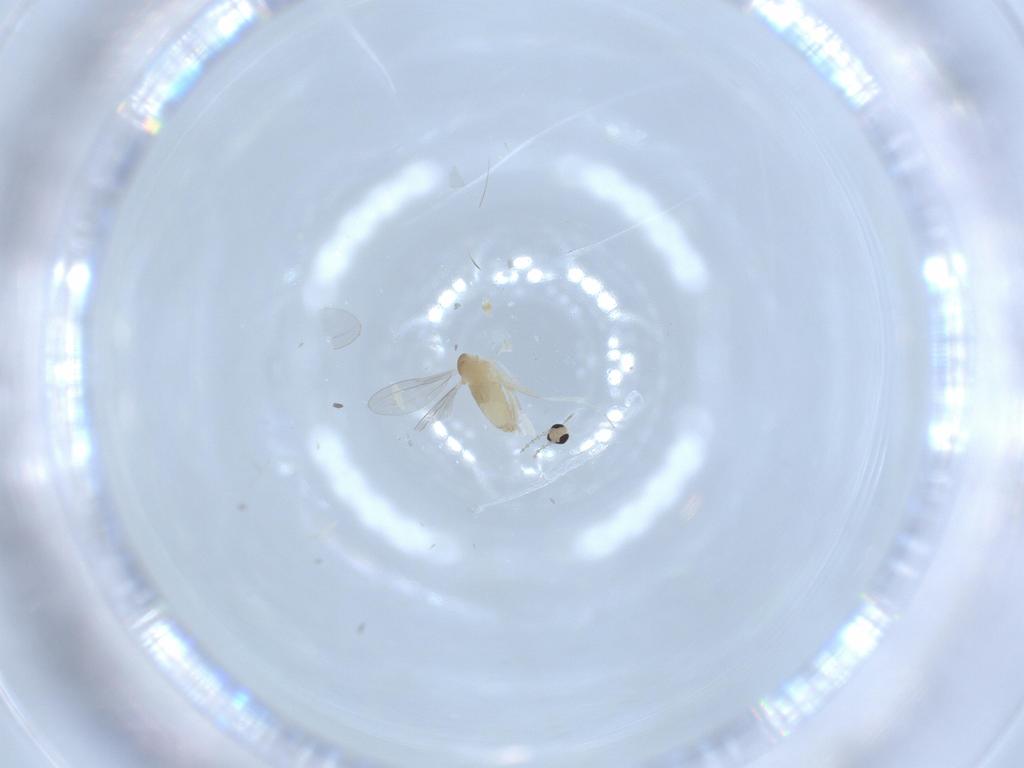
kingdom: Animalia
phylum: Arthropoda
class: Insecta
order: Diptera
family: Cecidomyiidae
